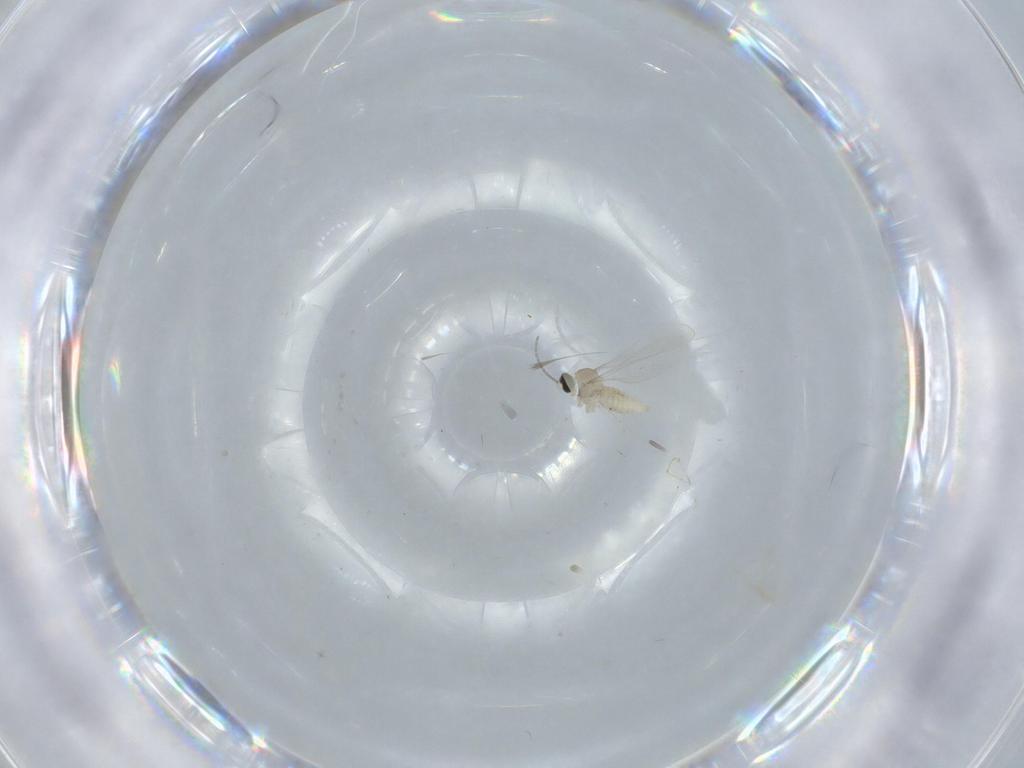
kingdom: Animalia
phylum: Arthropoda
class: Insecta
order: Diptera
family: Cecidomyiidae
